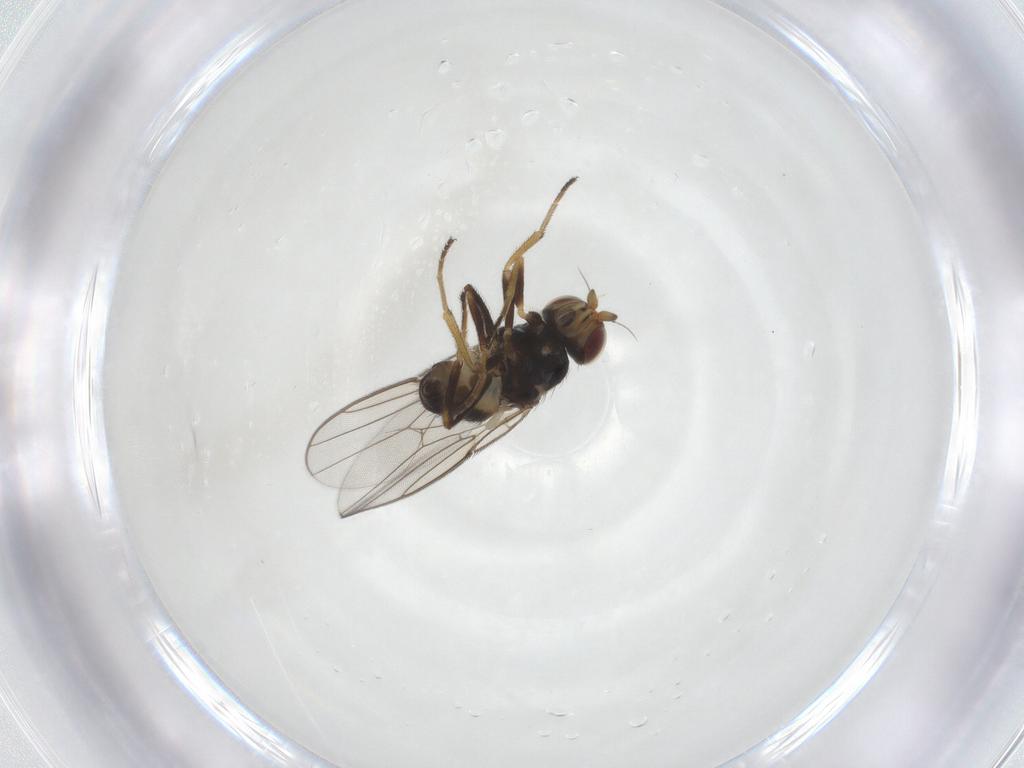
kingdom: Animalia
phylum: Arthropoda
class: Insecta
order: Diptera
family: Chloropidae
